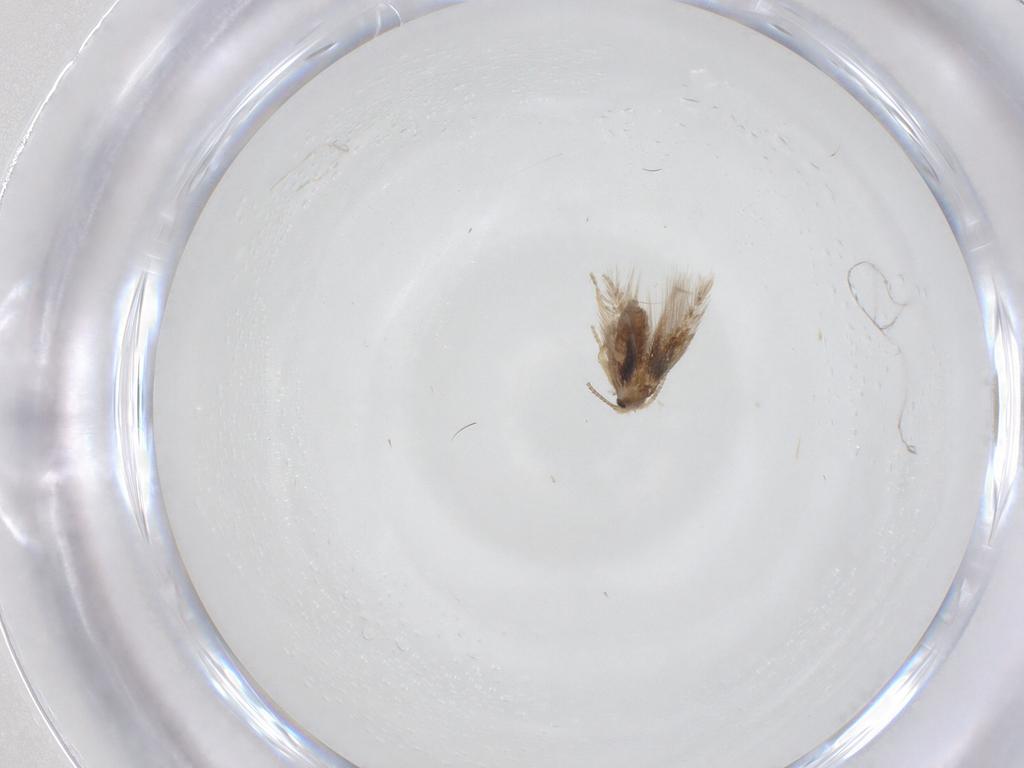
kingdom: Animalia
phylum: Arthropoda
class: Insecta
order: Lepidoptera
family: Nepticulidae
